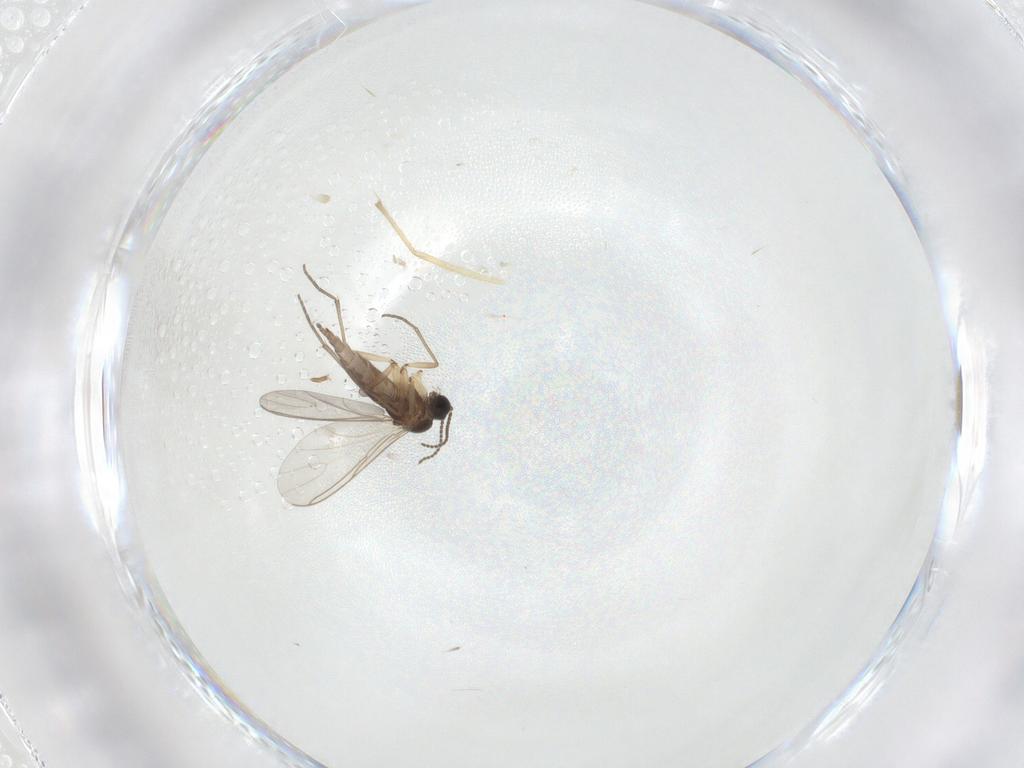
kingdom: Animalia
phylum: Arthropoda
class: Insecta
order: Diptera
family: Sciaridae
